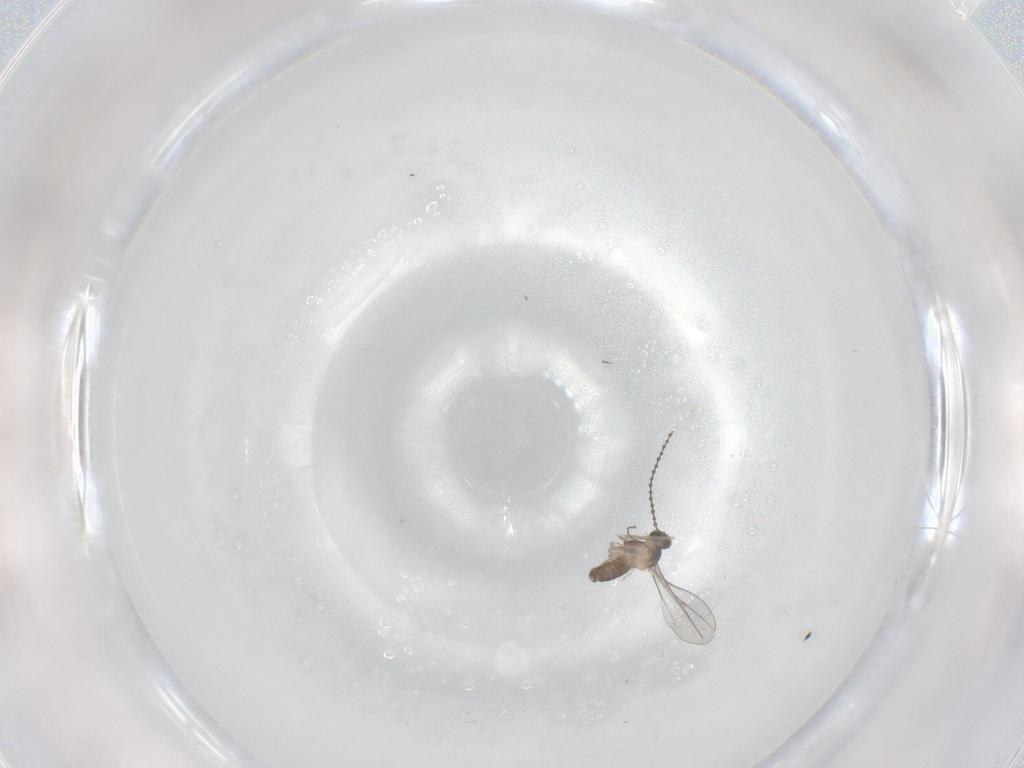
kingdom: Animalia
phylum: Arthropoda
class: Insecta
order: Diptera
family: Cecidomyiidae
